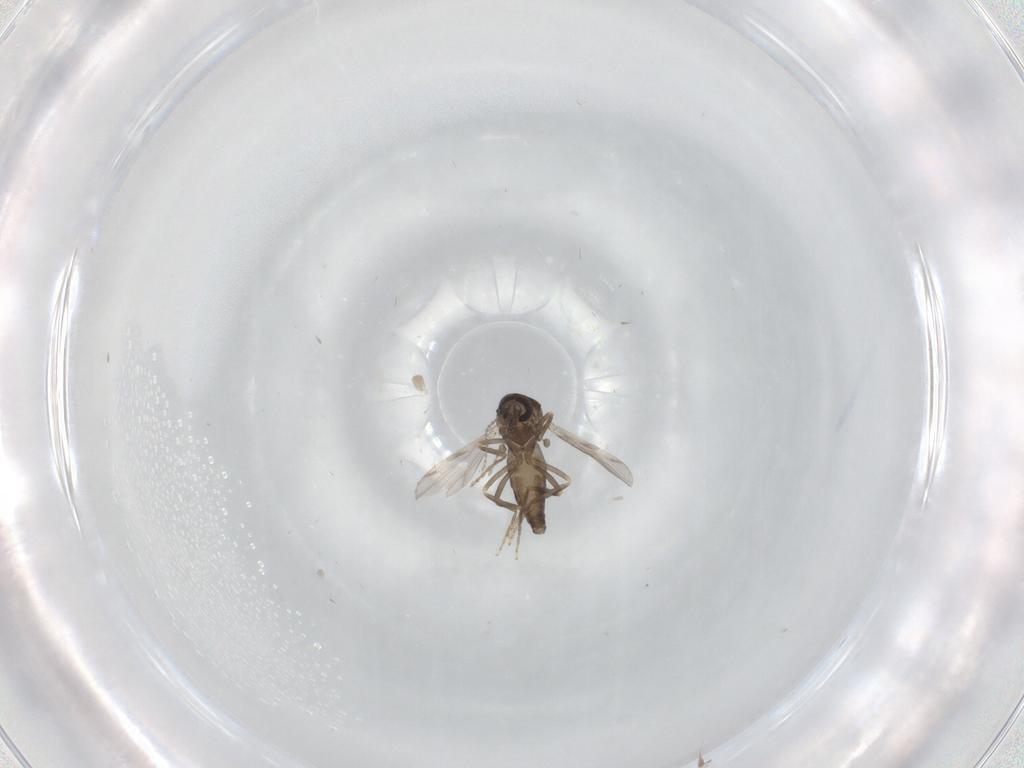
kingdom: Animalia
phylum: Arthropoda
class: Insecta
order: Diptera
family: Ceratopogonidae
